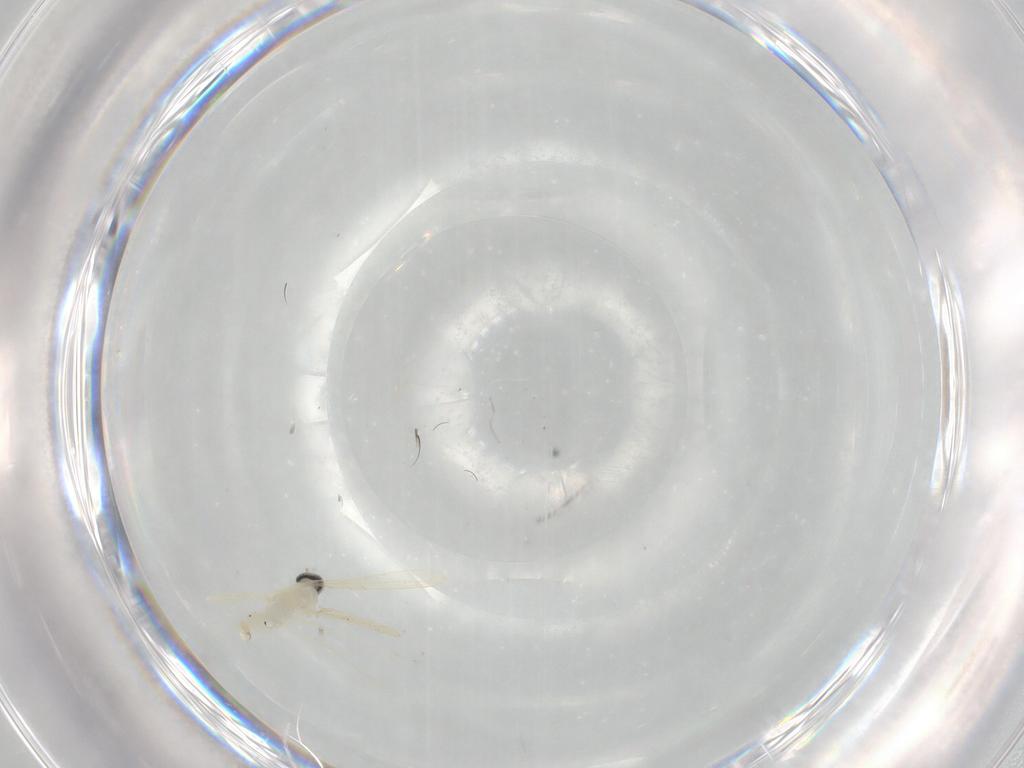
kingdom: Animalia
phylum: Arthropoda
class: Insecta
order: Diptera
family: Cecidomyiidae
